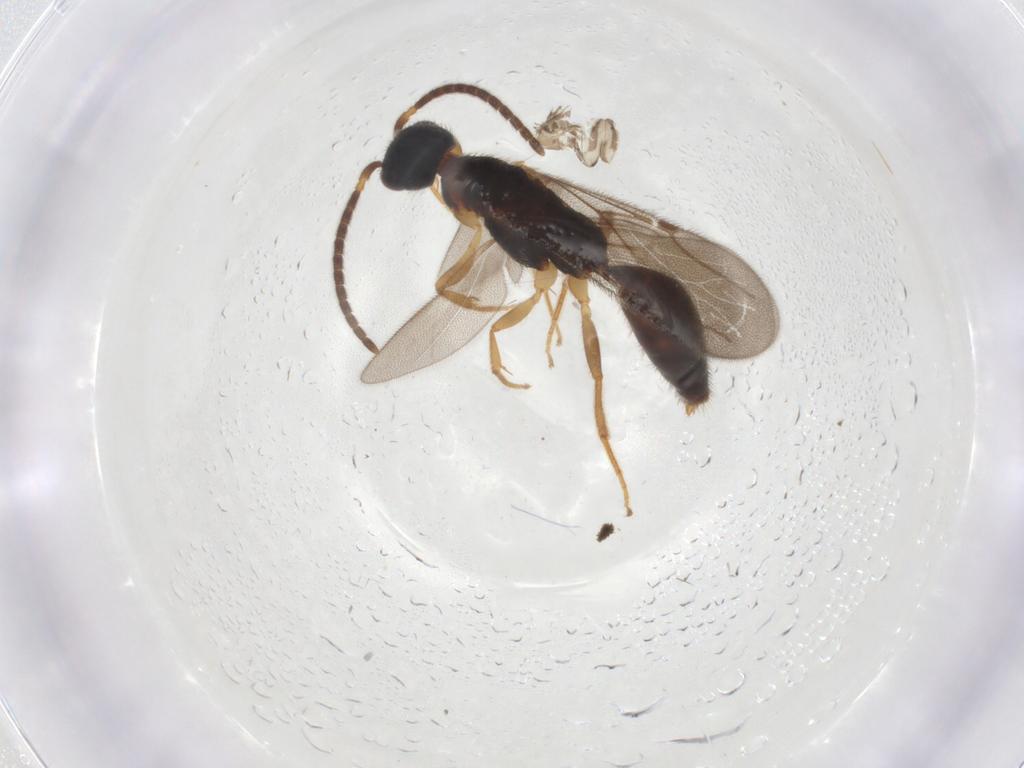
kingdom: Animalia
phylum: Arthropoda
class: Insecta
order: Hymenoptera
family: Bethylidae
